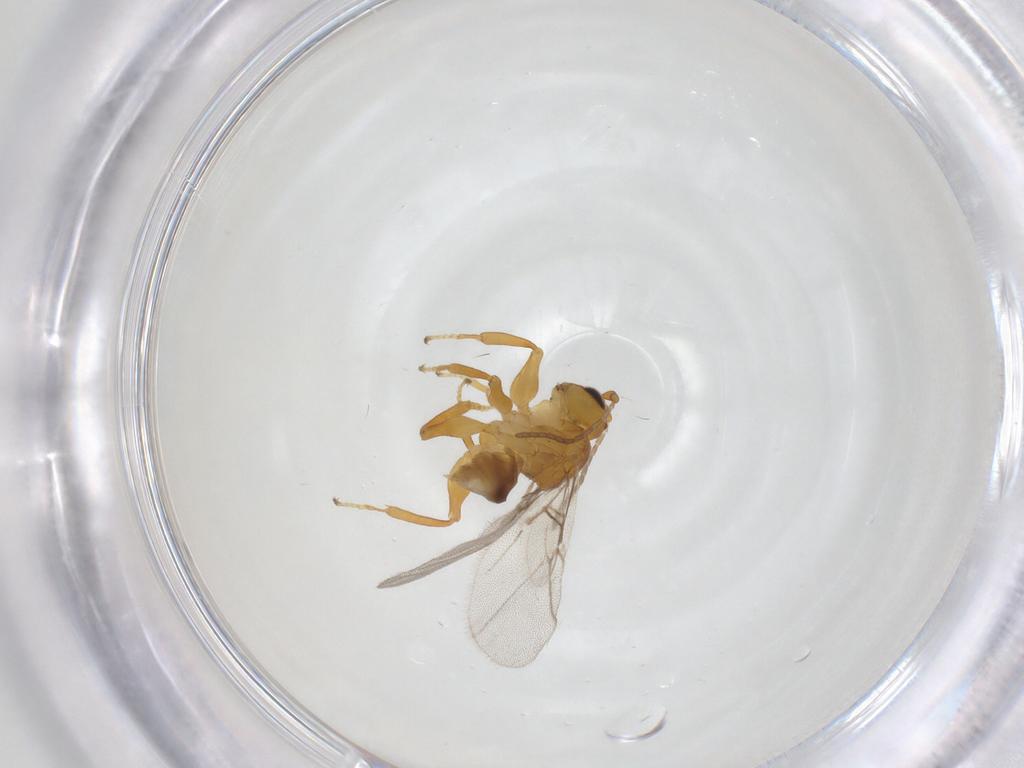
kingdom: Animalia
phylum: Arthropoda
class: Insecta
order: Hymenoptera
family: Cynipidae
